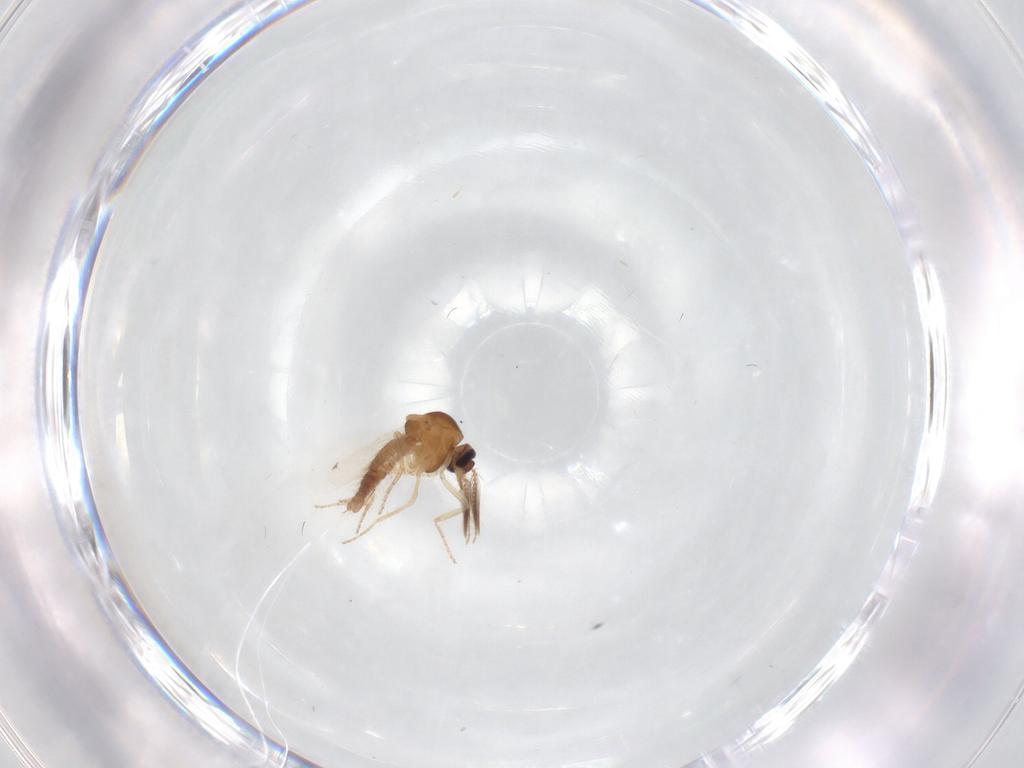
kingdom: Animalia
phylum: Arthropoda
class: Insecta
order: Diptera
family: Ceratopogonidae
